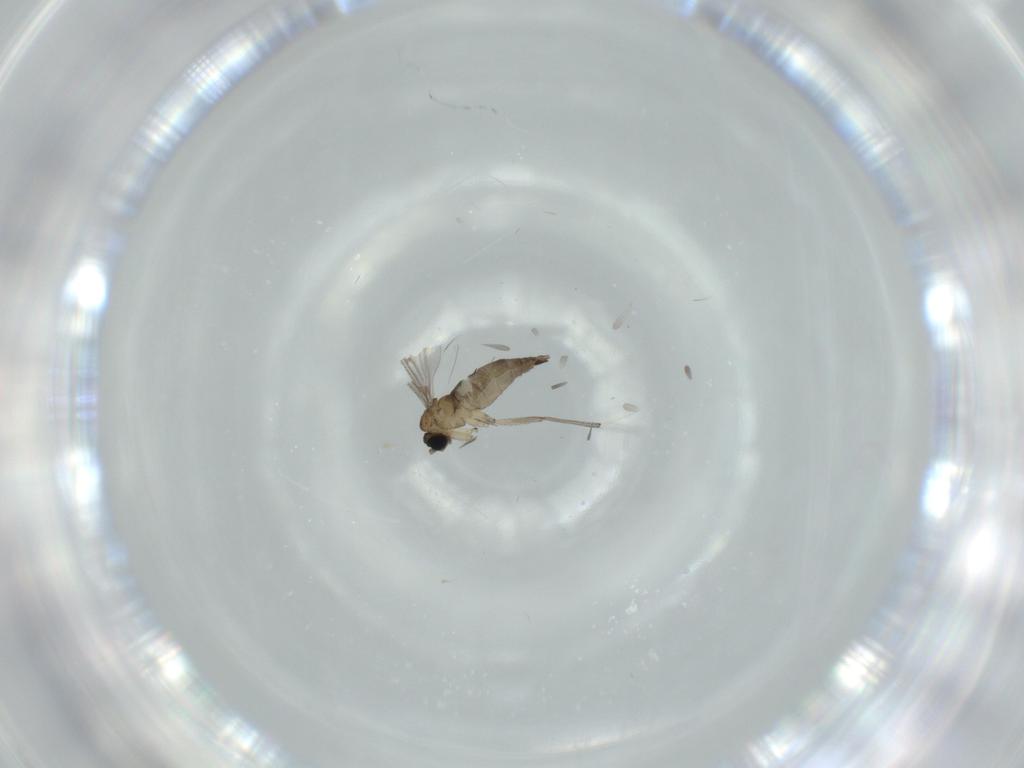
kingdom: Animalia
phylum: Arthropoda
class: Insecta
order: Diptera
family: Sciaridae
